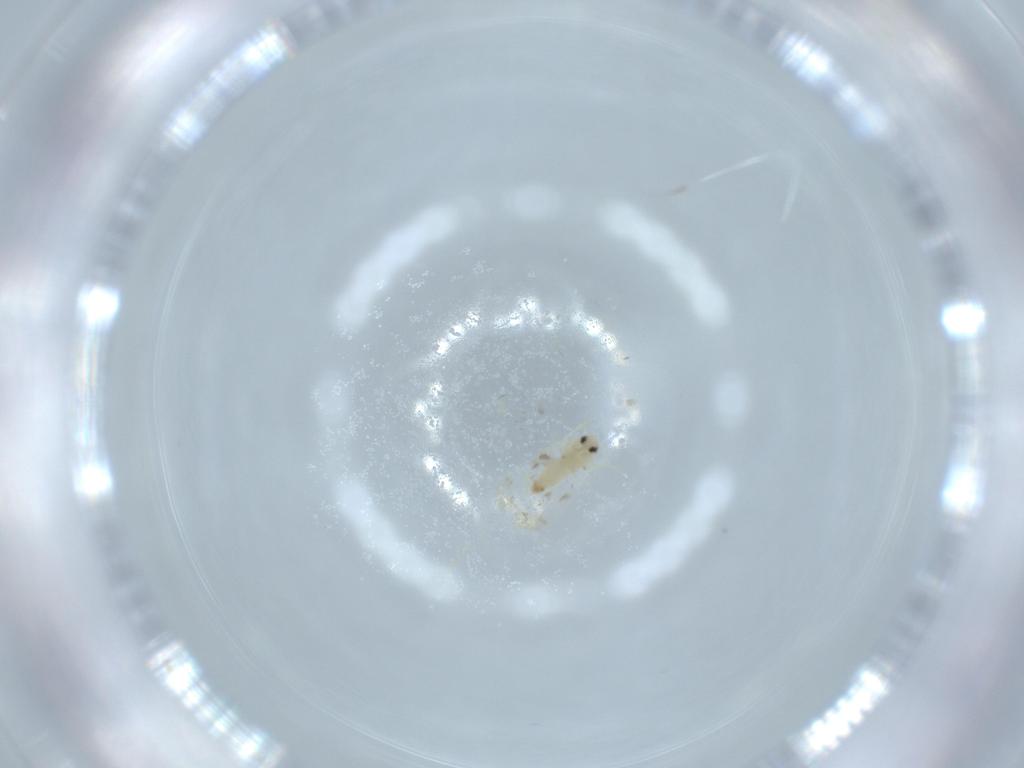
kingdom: Animalia
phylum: Arthropoda
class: Insecta
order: Hemiptera
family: Aleyrodidae
